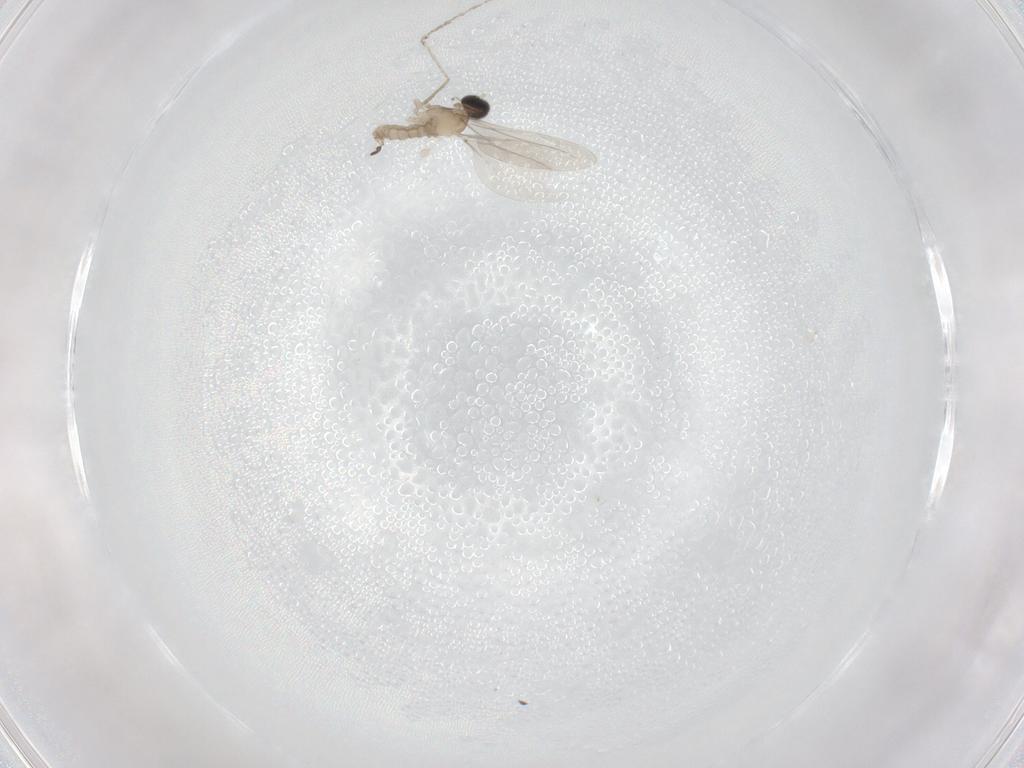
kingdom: Animalia
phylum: Arthropoda
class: Insecta
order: Diptera
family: Limoniidae
